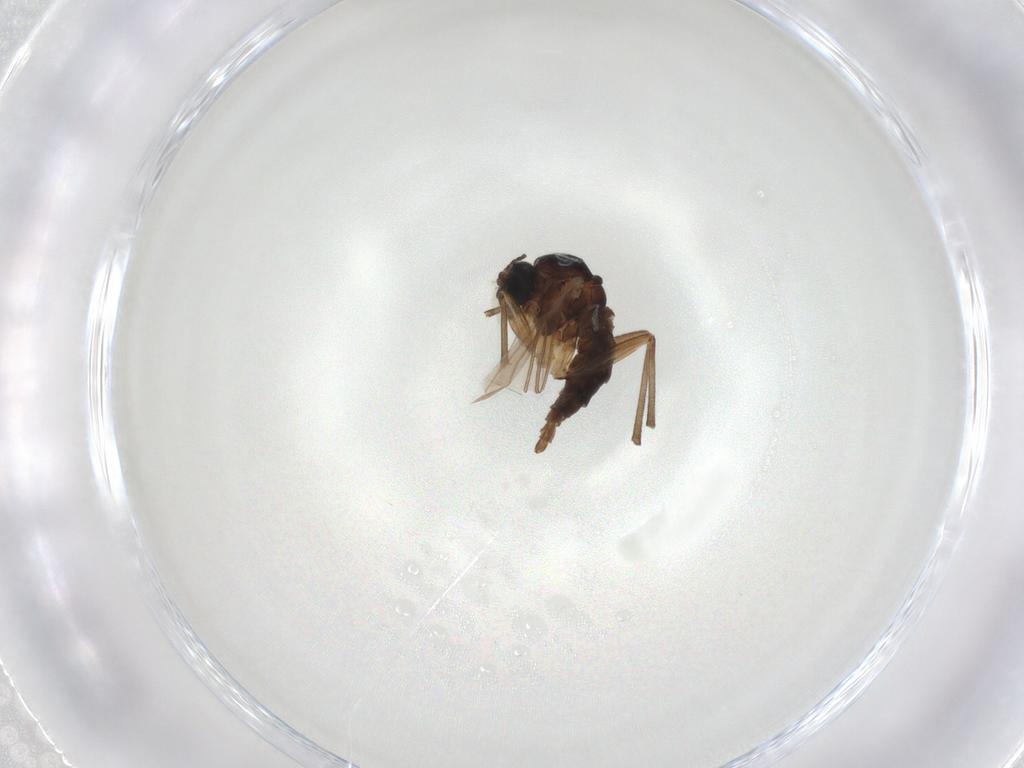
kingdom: Animalia
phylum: Arthropoda
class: Insecta
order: Diptera
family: Sciaridae
